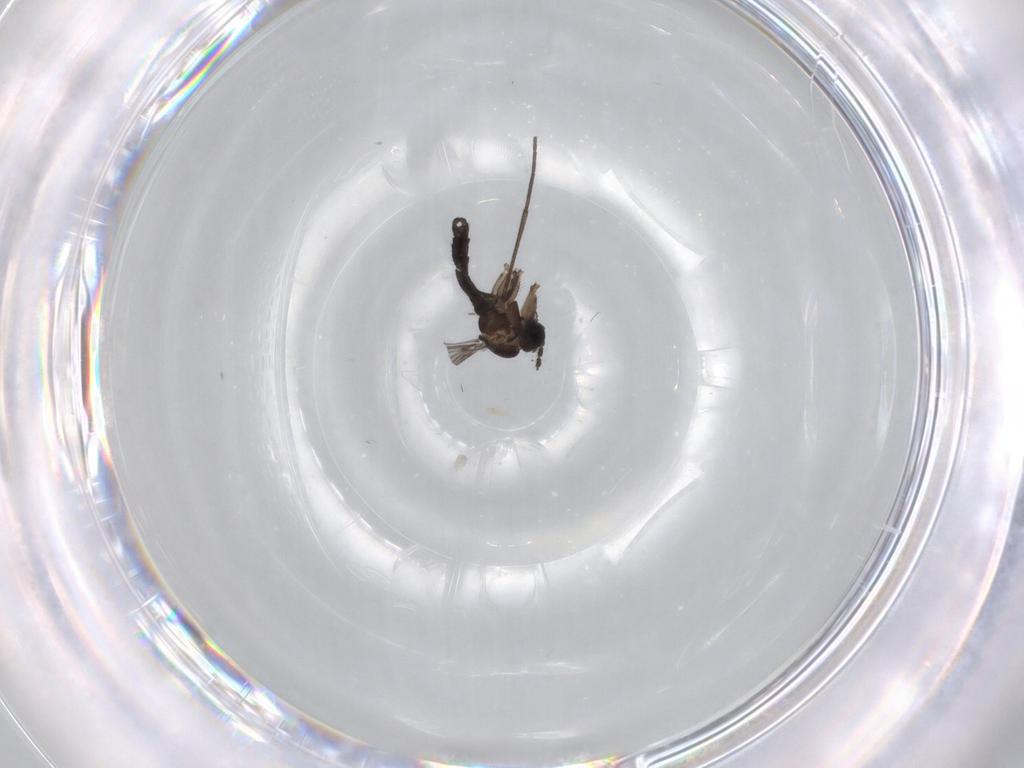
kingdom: Animalia
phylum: Arthropoda
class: Insecta
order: Diptera
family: Sciaridae
